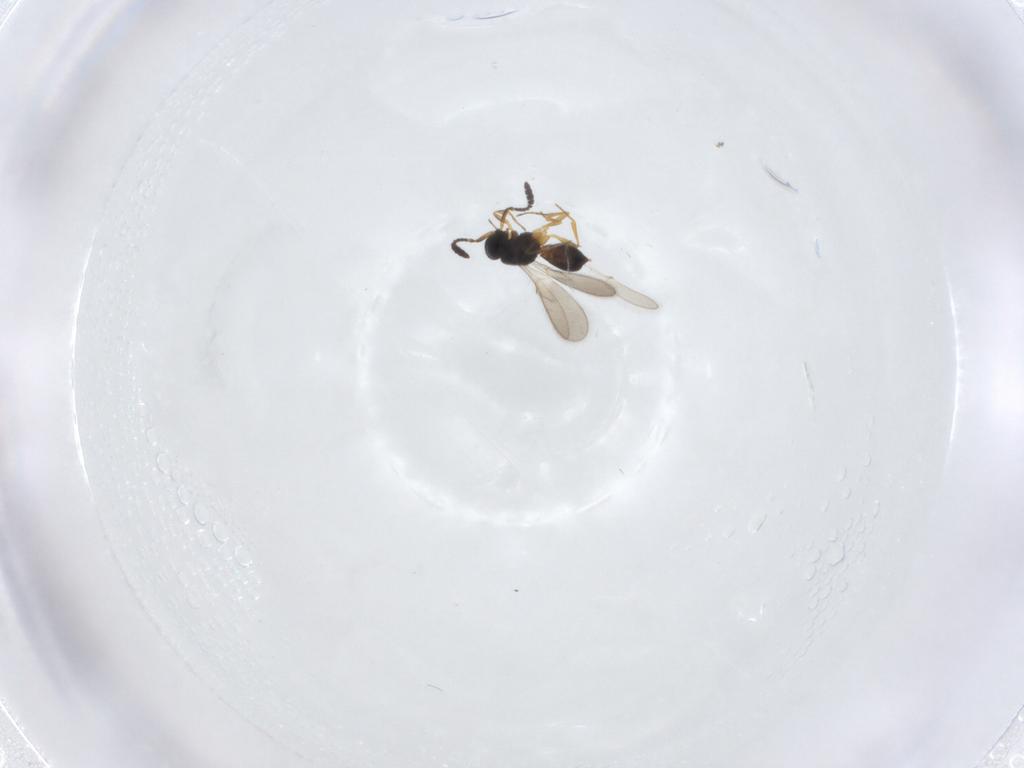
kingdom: Animalia
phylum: Arthropoda
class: Insecta
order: Hymenoptera
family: Scelionidae
